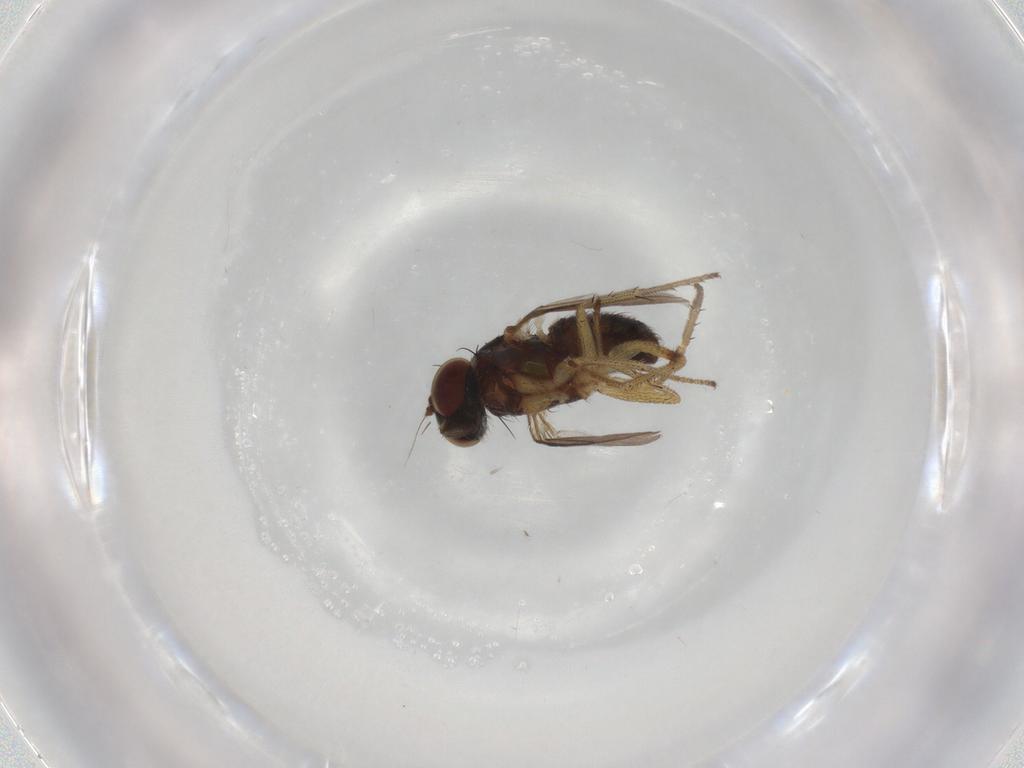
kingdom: Animalia
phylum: Arthropoda
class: Insecta
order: Diptera
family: Dolichopodidae
